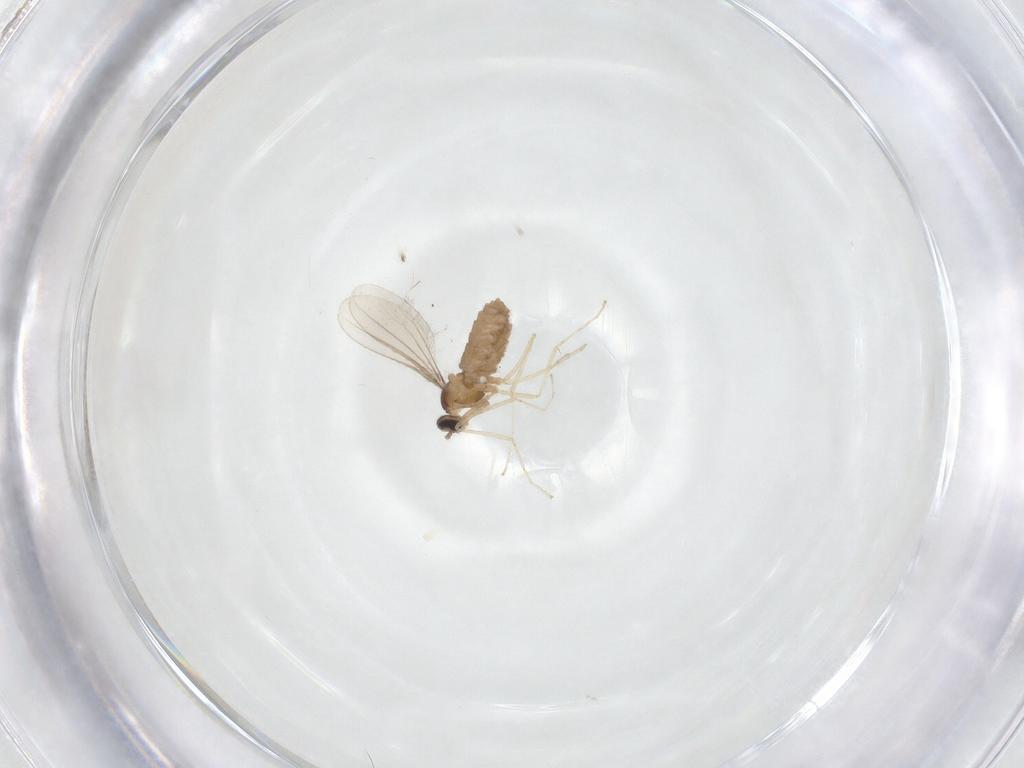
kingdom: Animalia
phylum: Arthropoda
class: Insecta
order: Diptera
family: Cecidomyiidae
